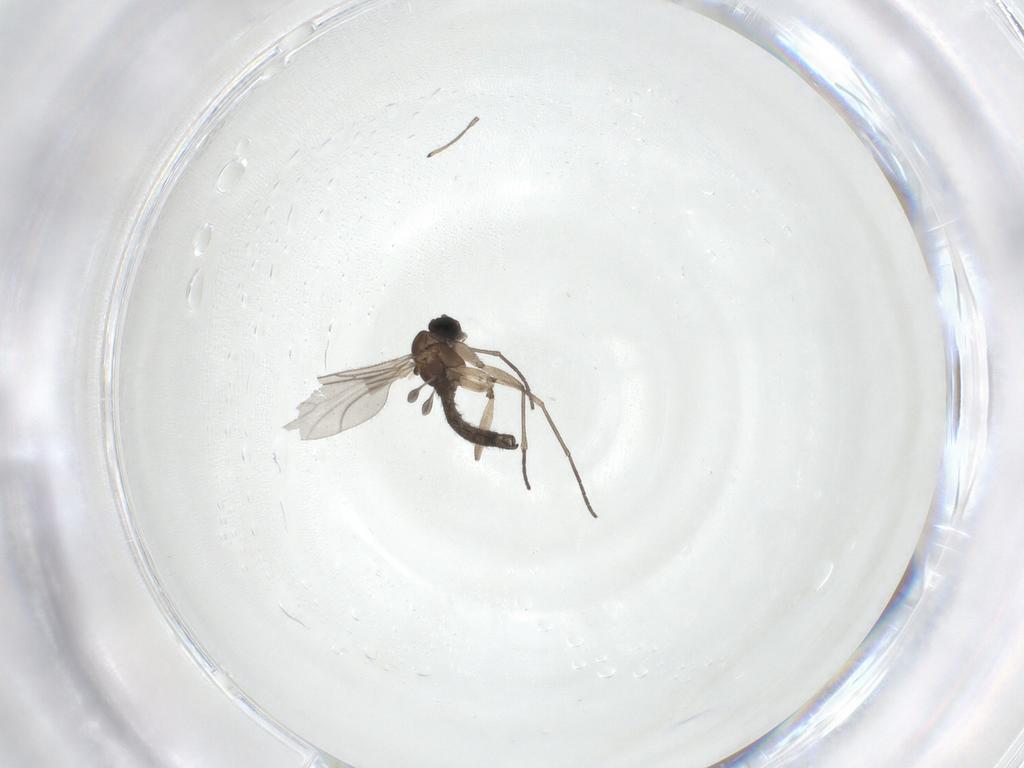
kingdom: Animalia
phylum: Arthropoda
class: Insecta
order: Diptera
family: Sciaridae
